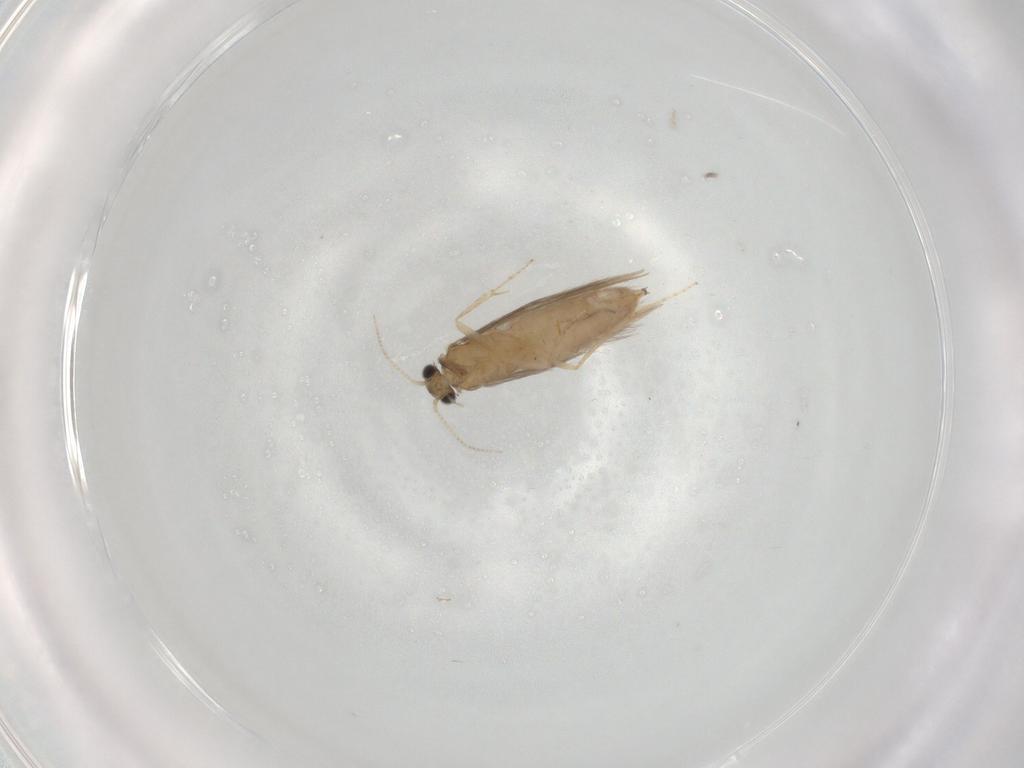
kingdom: Animalia
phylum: Arthropoda
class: Insecta
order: Trichoptera
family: Hydroptilidae
